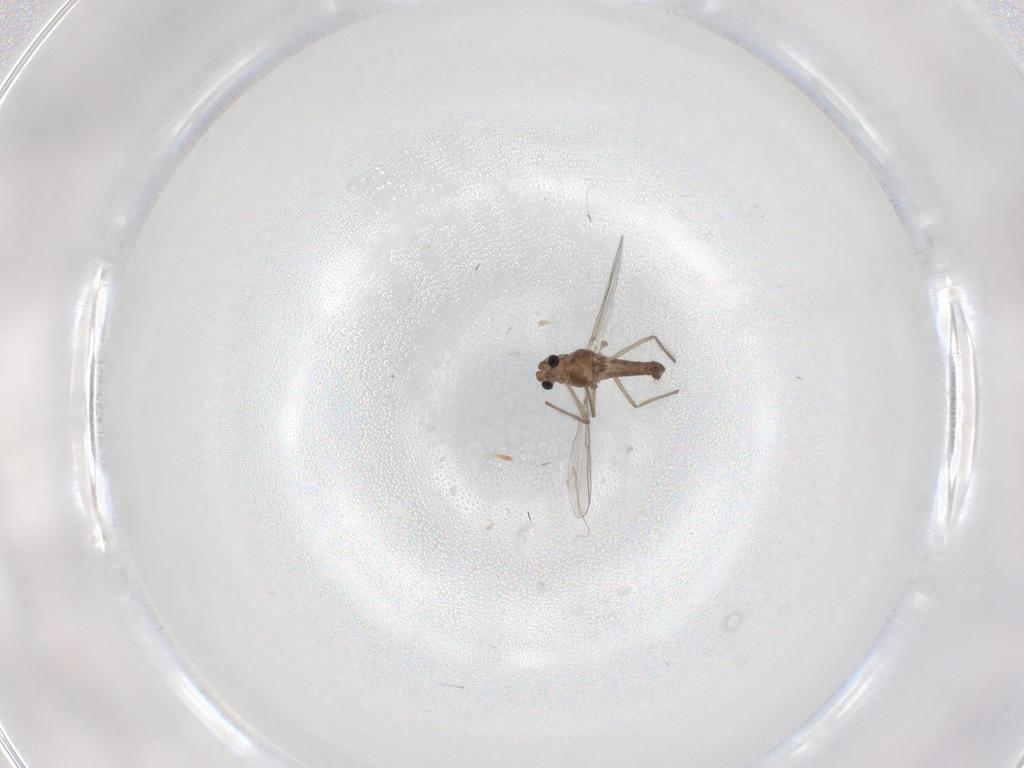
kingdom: Animalia
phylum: Arthropoda
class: Insecta
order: Diptera
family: Chironomidae
